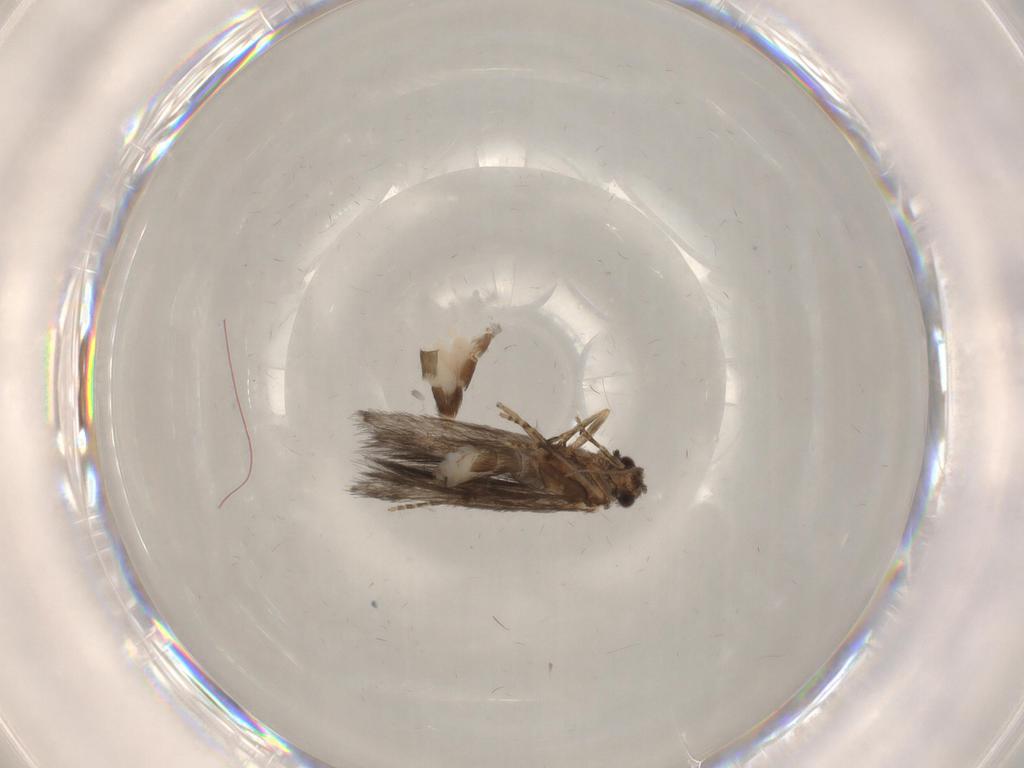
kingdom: Animalia
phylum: Arthropoda
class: Insecta
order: Trichoptera
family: Hydroptilidae
